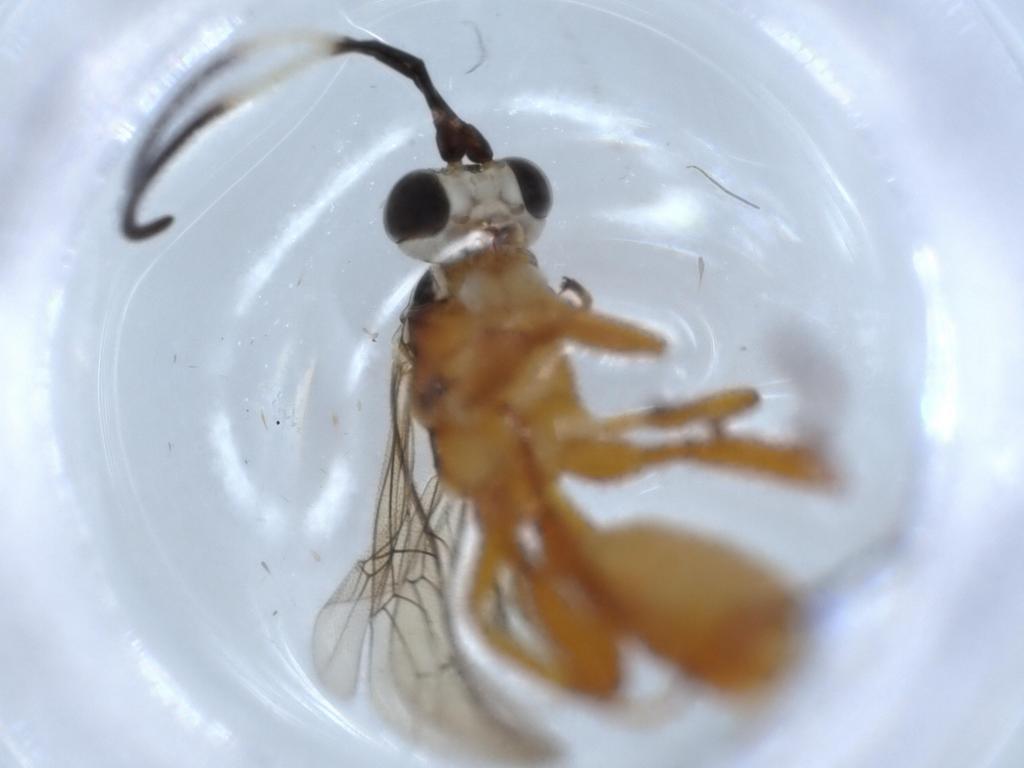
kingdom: Animalia
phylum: Arthropoda
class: Insecta
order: Hymenoptera
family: Scelionidae
